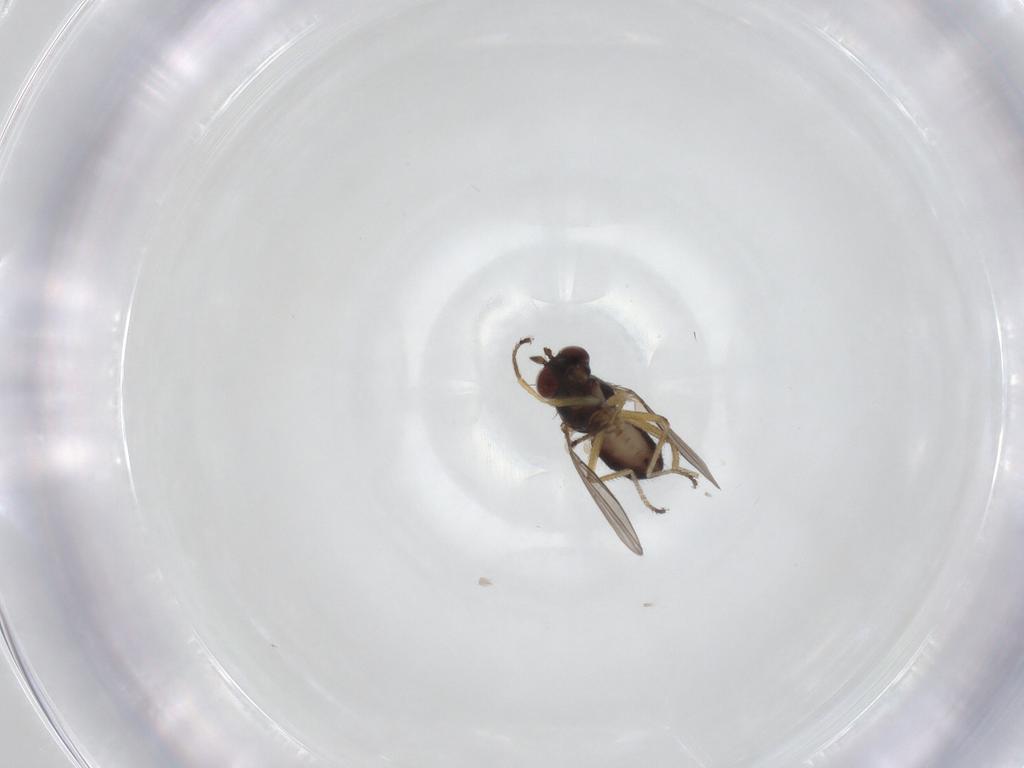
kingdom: Animalia
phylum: Arthropoda
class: Insecta
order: Diptera
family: Ephydridae
